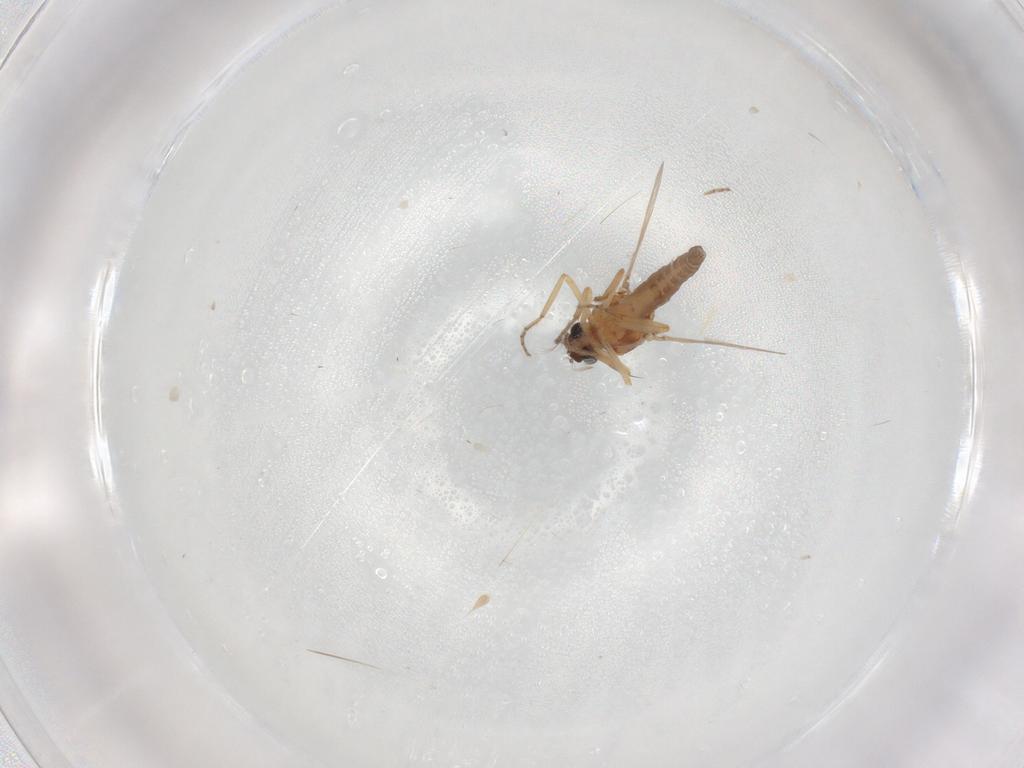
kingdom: Animalia
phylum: Arthropoda
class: Insecta
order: Diptera
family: Ceratopogonidae
